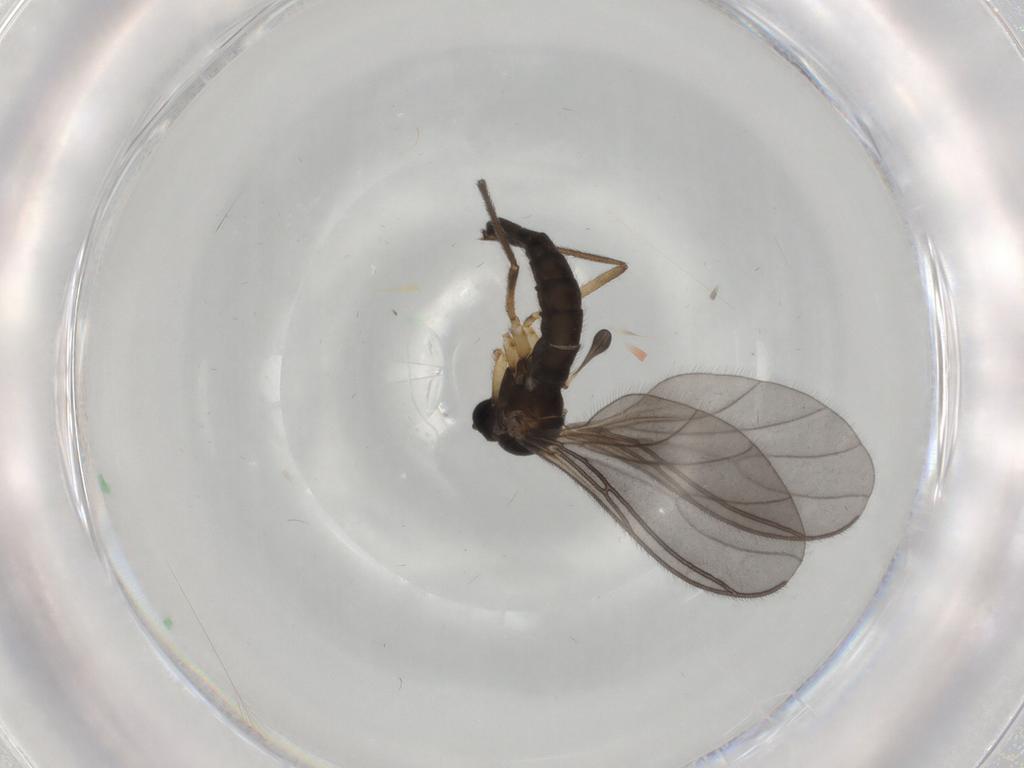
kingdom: Animalia
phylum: Arthropoda
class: Insecta
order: Diptera
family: Sciaridae
